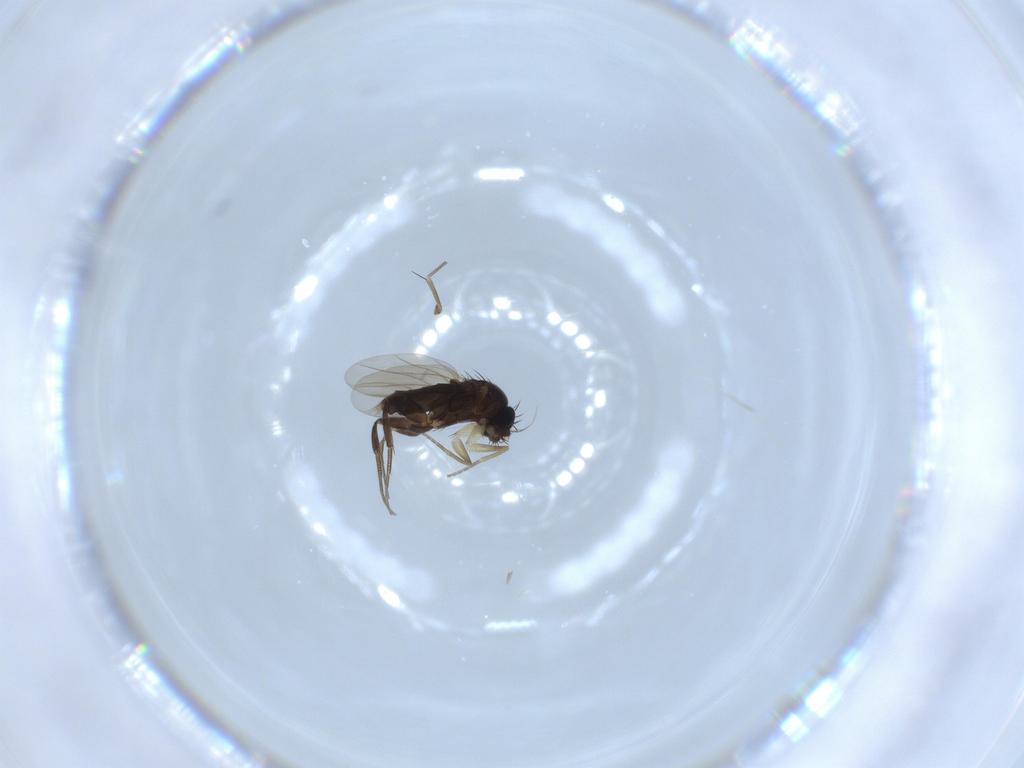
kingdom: Animalia
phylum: Arthropoda
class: Insecta
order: Diptera
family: Phoridae
